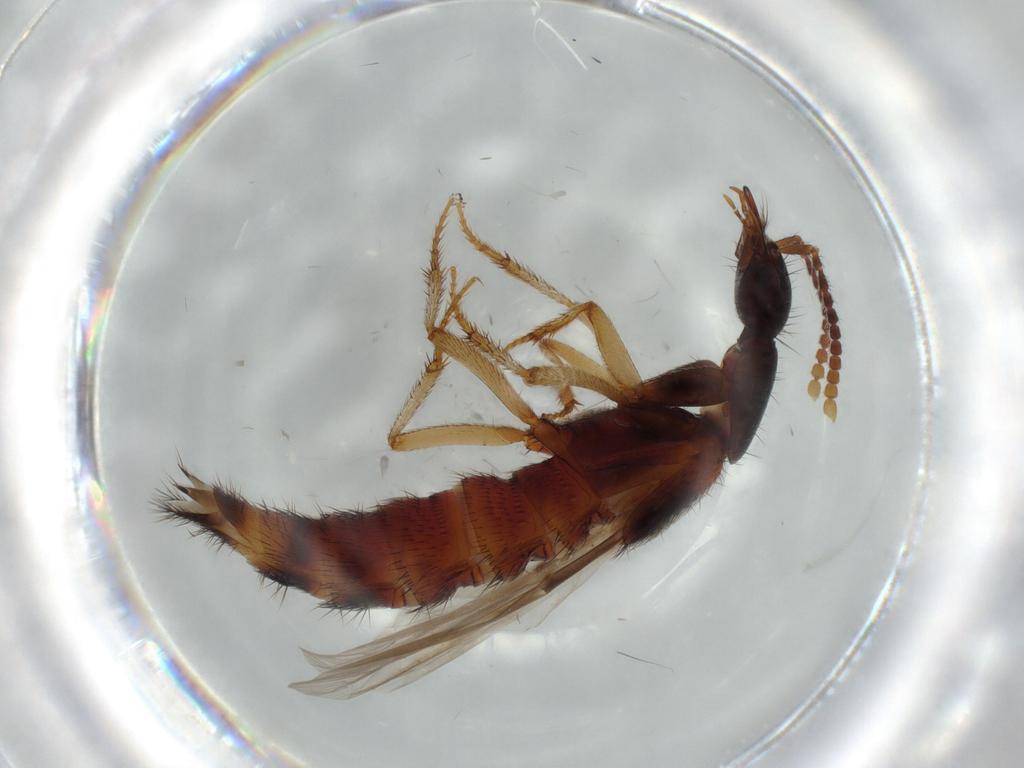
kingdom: Animalia
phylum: Arthropoda
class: Insecta
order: Coleoptera
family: Staphylinidae
